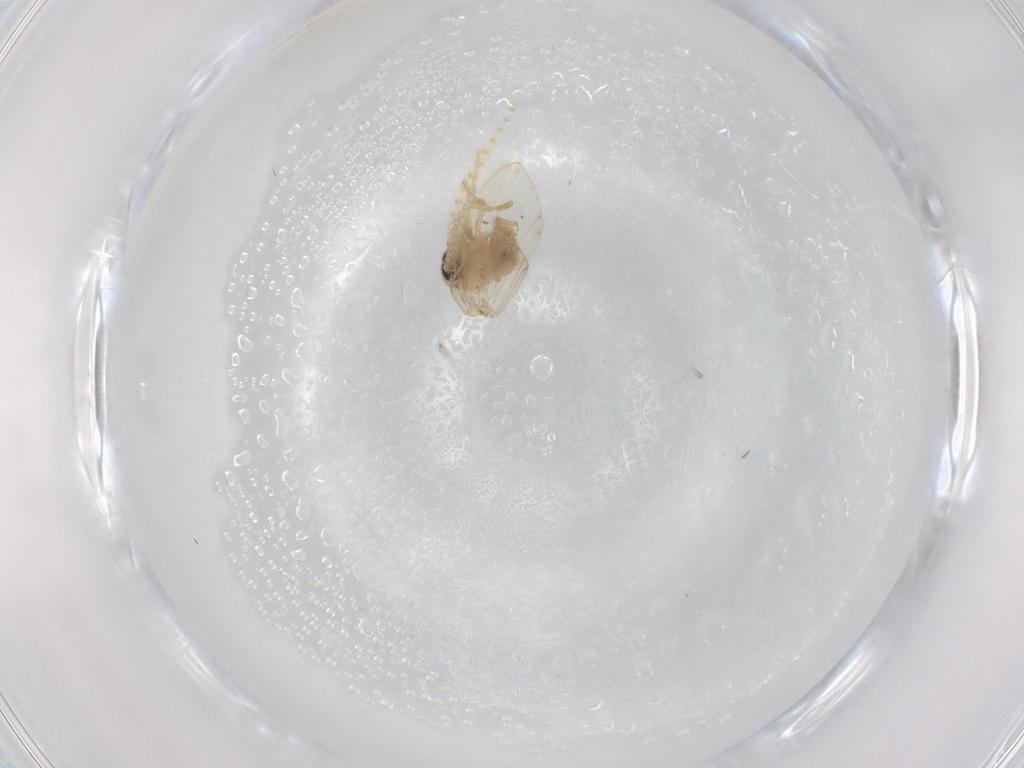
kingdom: Animalia
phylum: Arthropoda
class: Insecta
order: Diptera
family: Psychodidae
